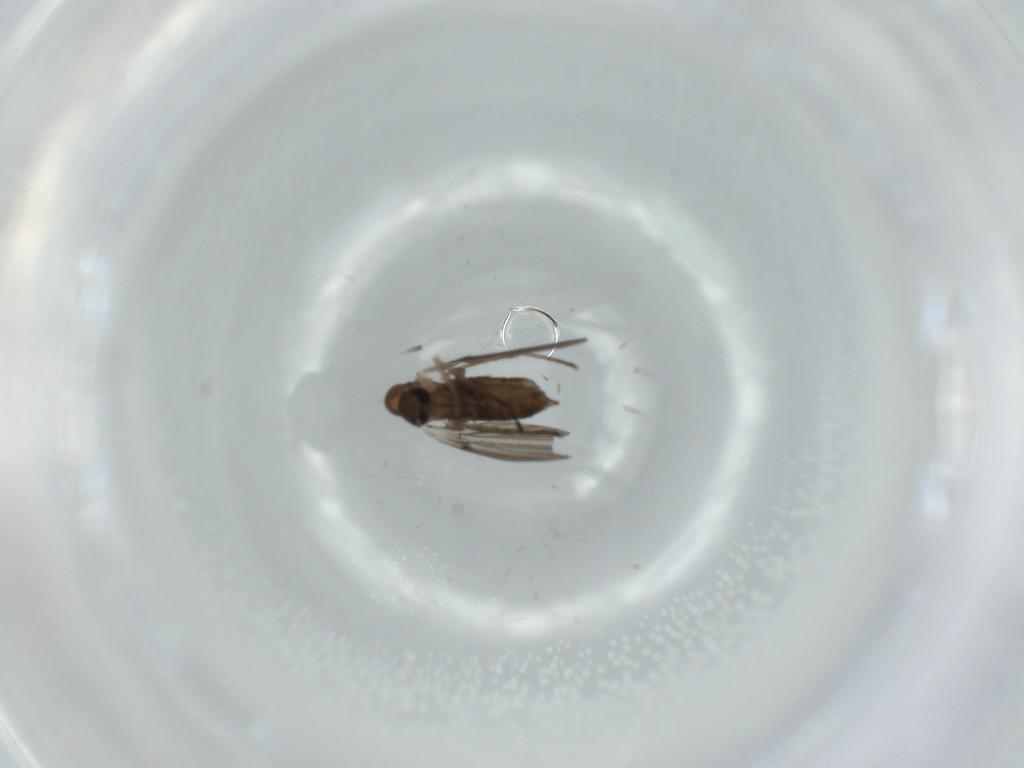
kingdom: Animalia
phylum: Arthropoda
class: Insecta
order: Diptera
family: Sciaridae
